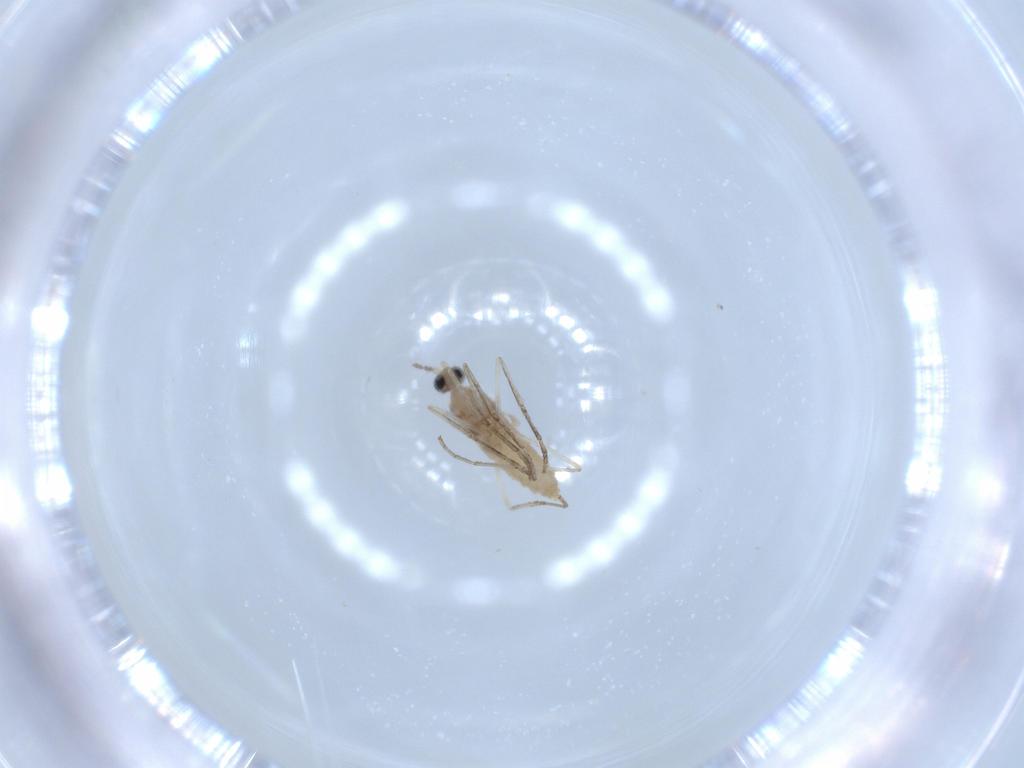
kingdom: Animalia
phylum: Arthropoda
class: Insecta
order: Diptera
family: Cecidomyiidae
